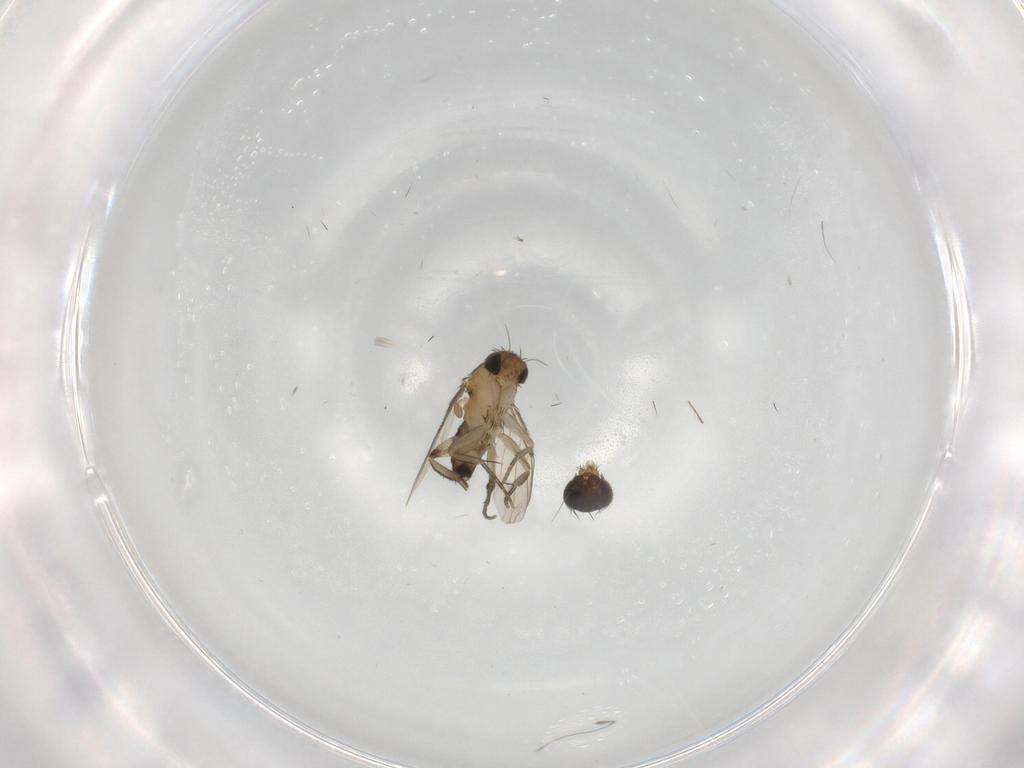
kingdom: Animalia
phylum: Arthropoda
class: Insecta
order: Diptera
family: Phoridae
